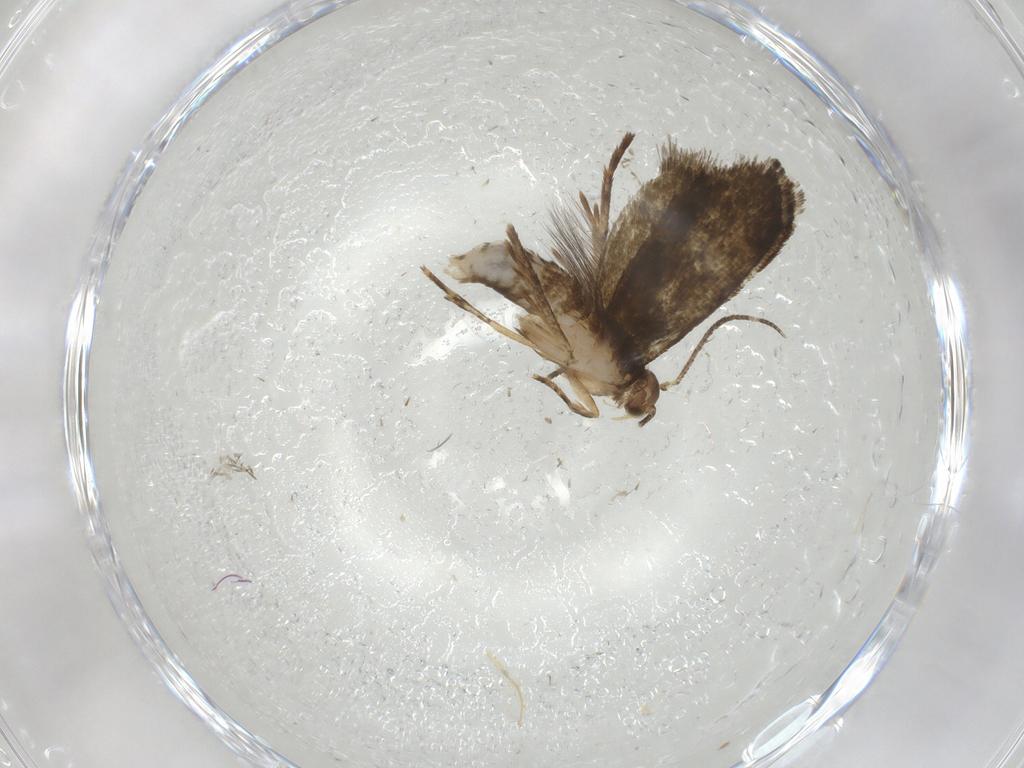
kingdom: Animalia
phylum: Arthropoda
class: Insecta
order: Lepidoptera
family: Tineidae
